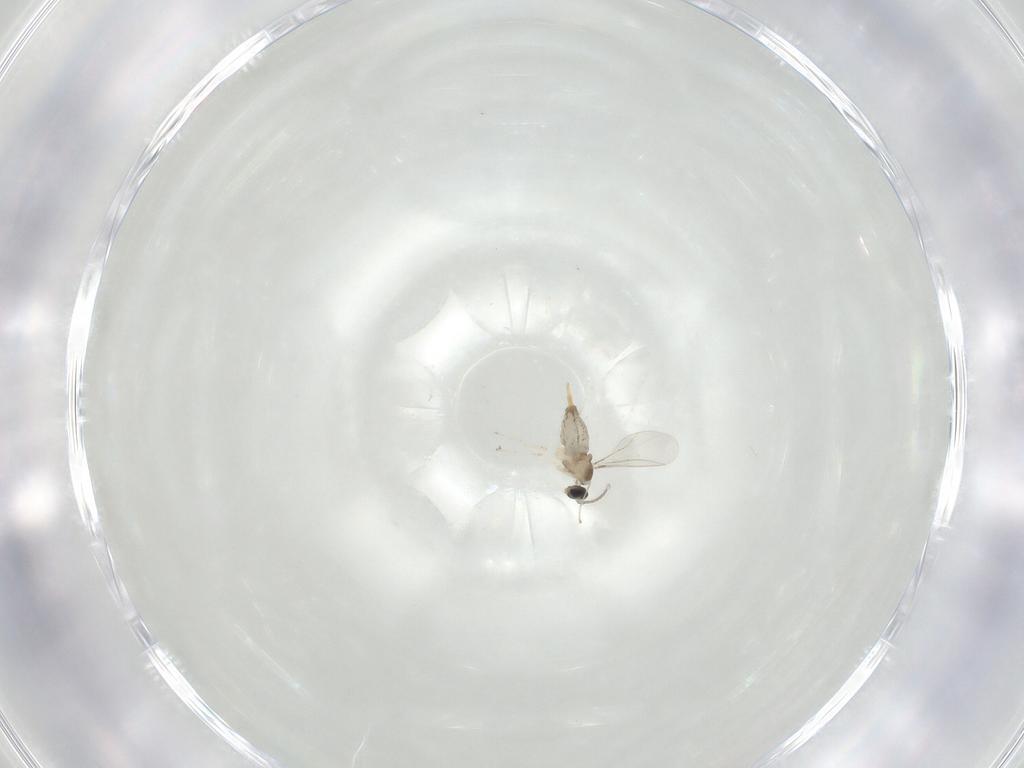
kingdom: Animalia
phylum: Arthropoda
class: Insecta
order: Diptera
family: Cecidomyiidae
